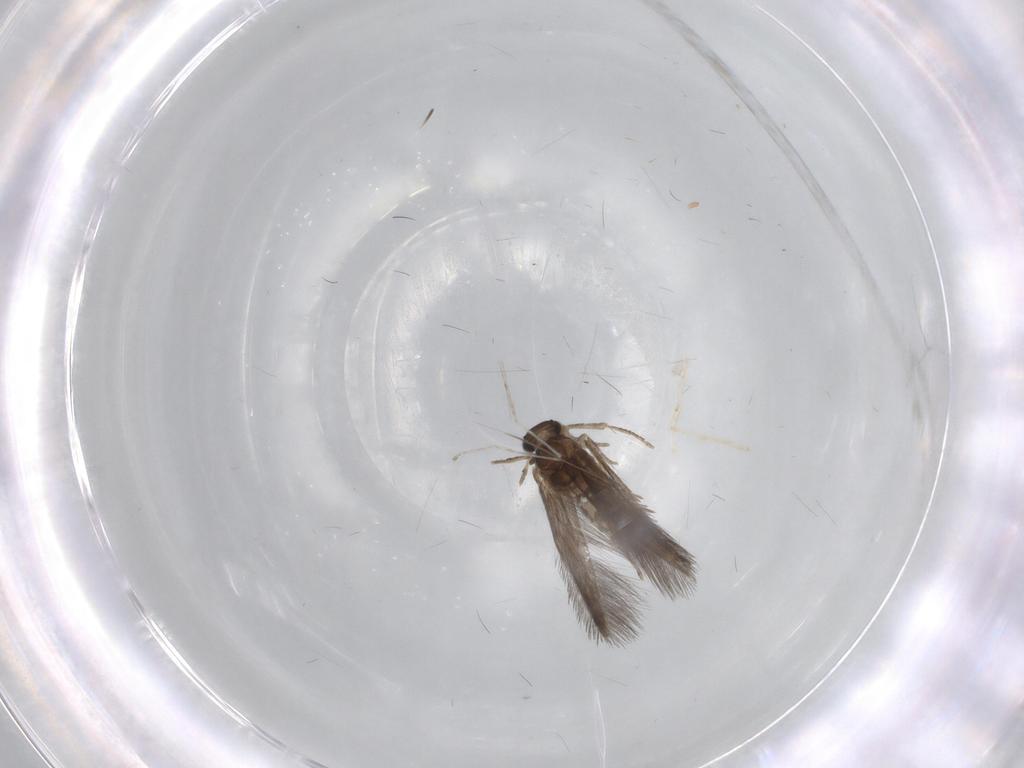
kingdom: Animalia
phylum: Arthropoda
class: Insecta
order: Trichoptera
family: Hydroptilidae
